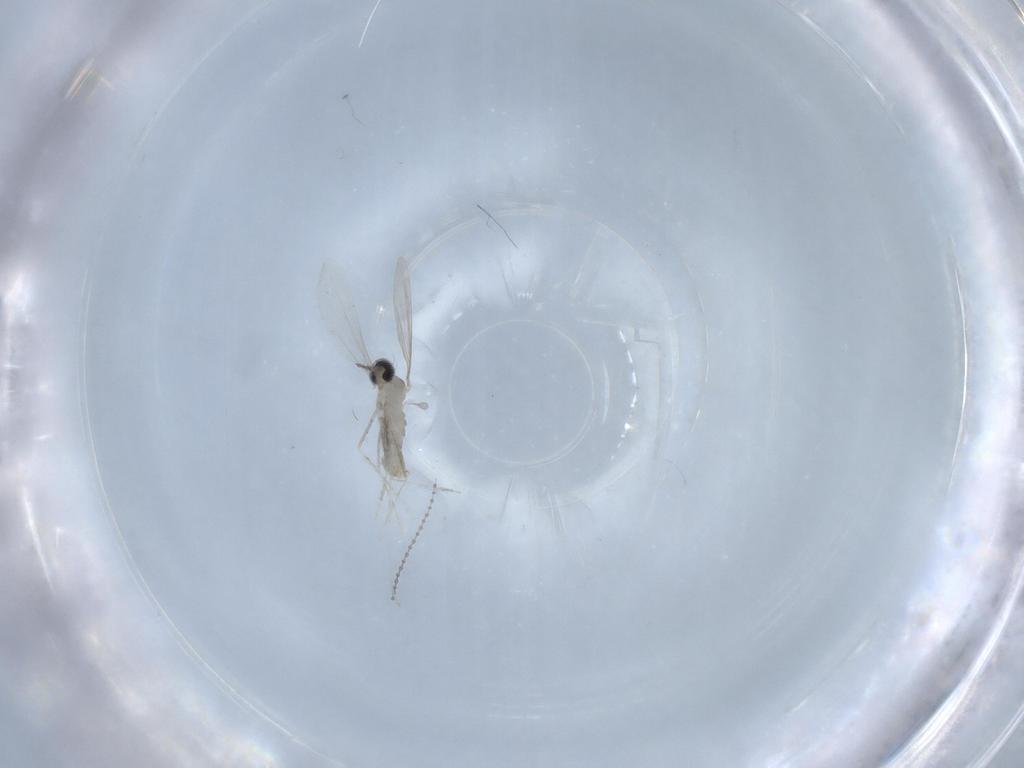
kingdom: Animalia
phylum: Arthropoda
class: Insecta
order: Diptera
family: Cecidomyiidae
